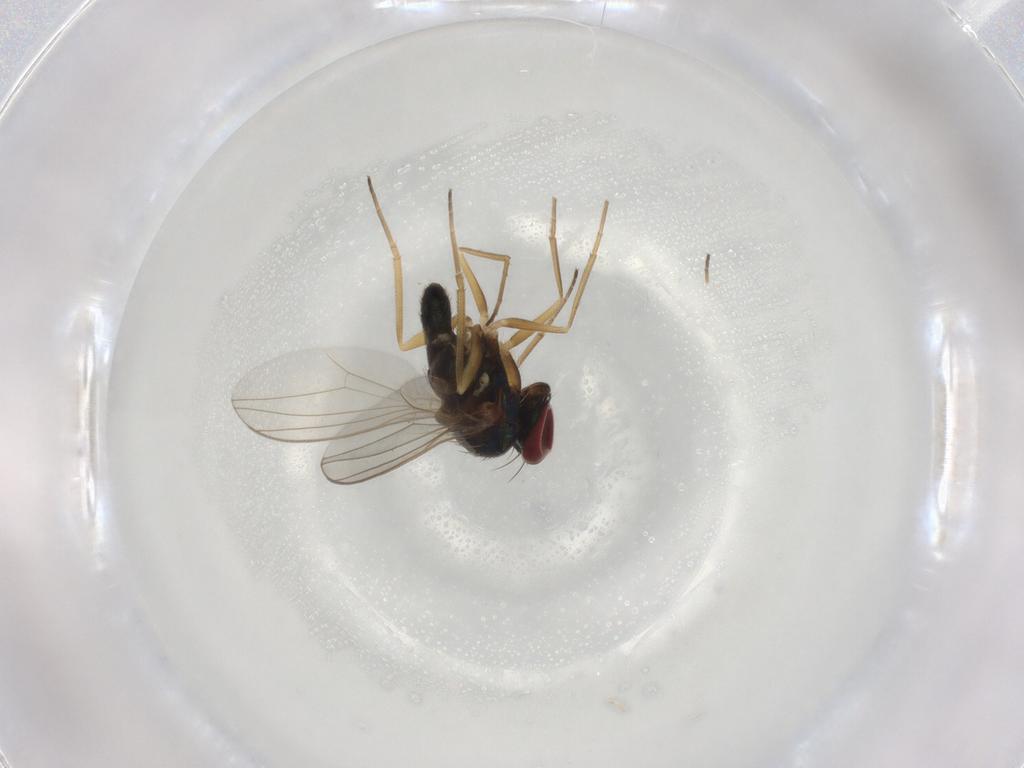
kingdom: Animalia
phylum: Arthropoda
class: Insecta
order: Diptera
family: Dolichopodidae
